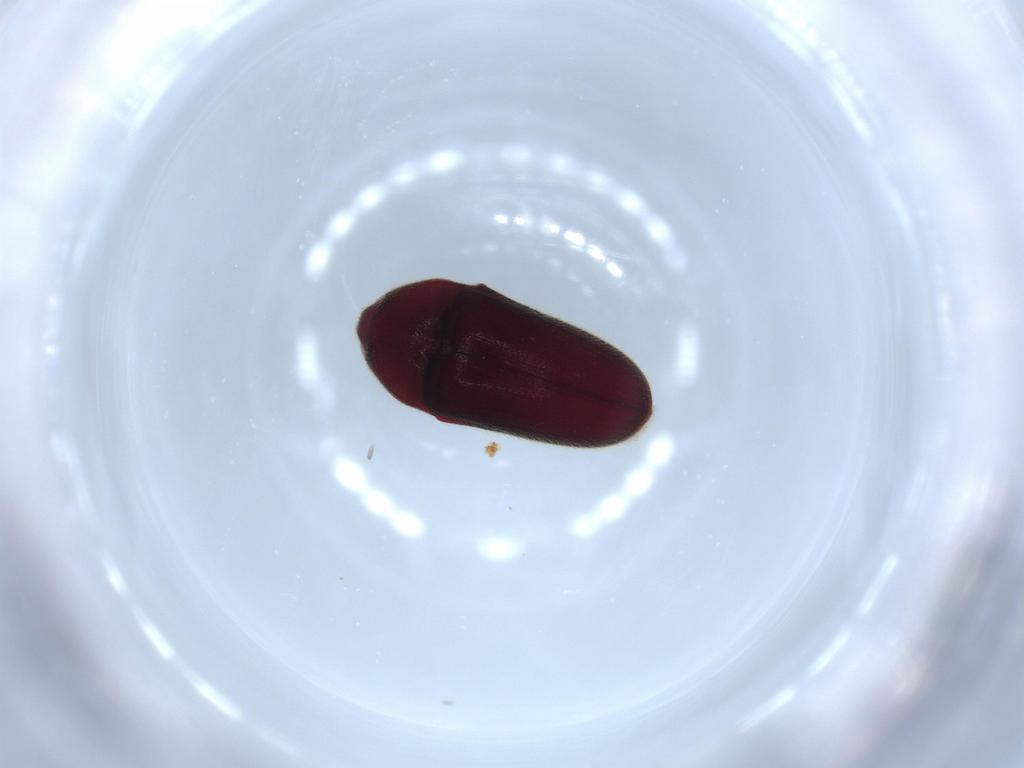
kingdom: Animalia
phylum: Arthropoda
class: Insecta
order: Coleoptera
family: Throscidae
